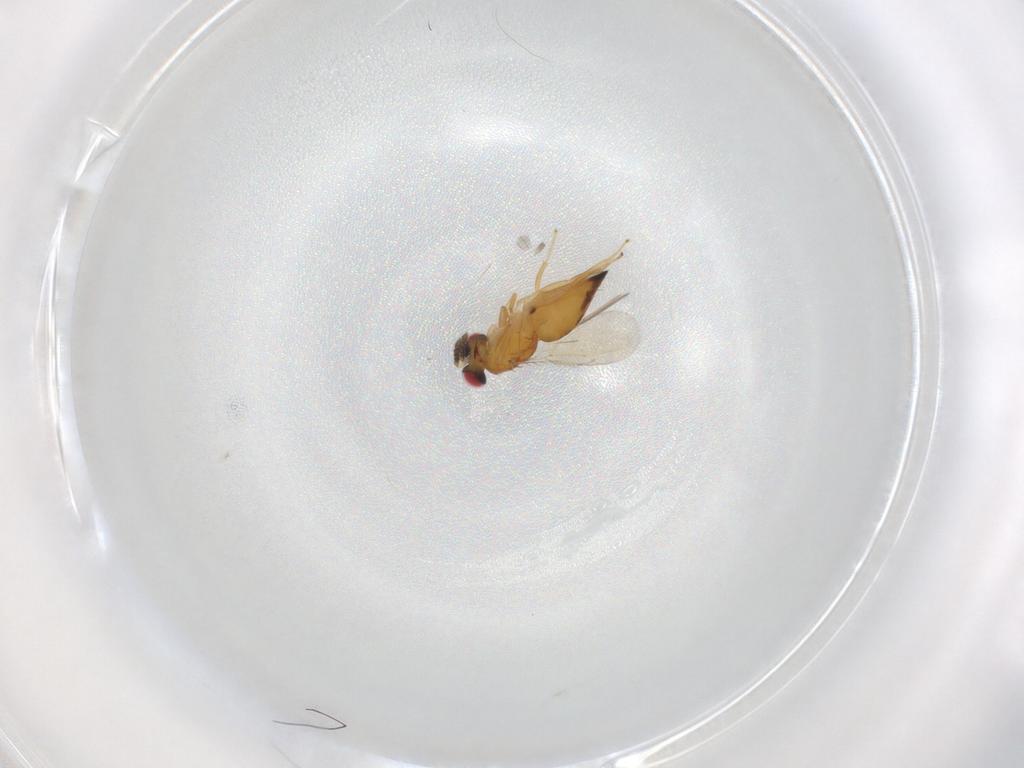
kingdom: Animalia
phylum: Arthropoda
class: Insecta
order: Hymenoptera
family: Eulophidae
